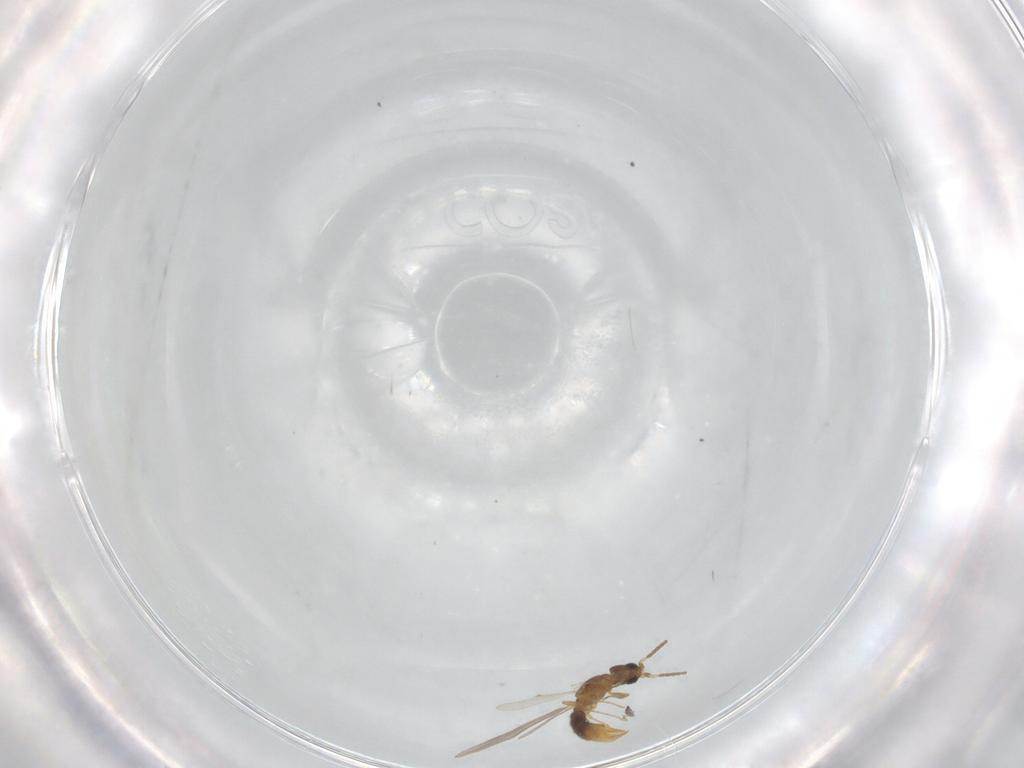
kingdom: Animalia
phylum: Arthropoda
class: Insecta
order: Hymenoptera
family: Formicidae
